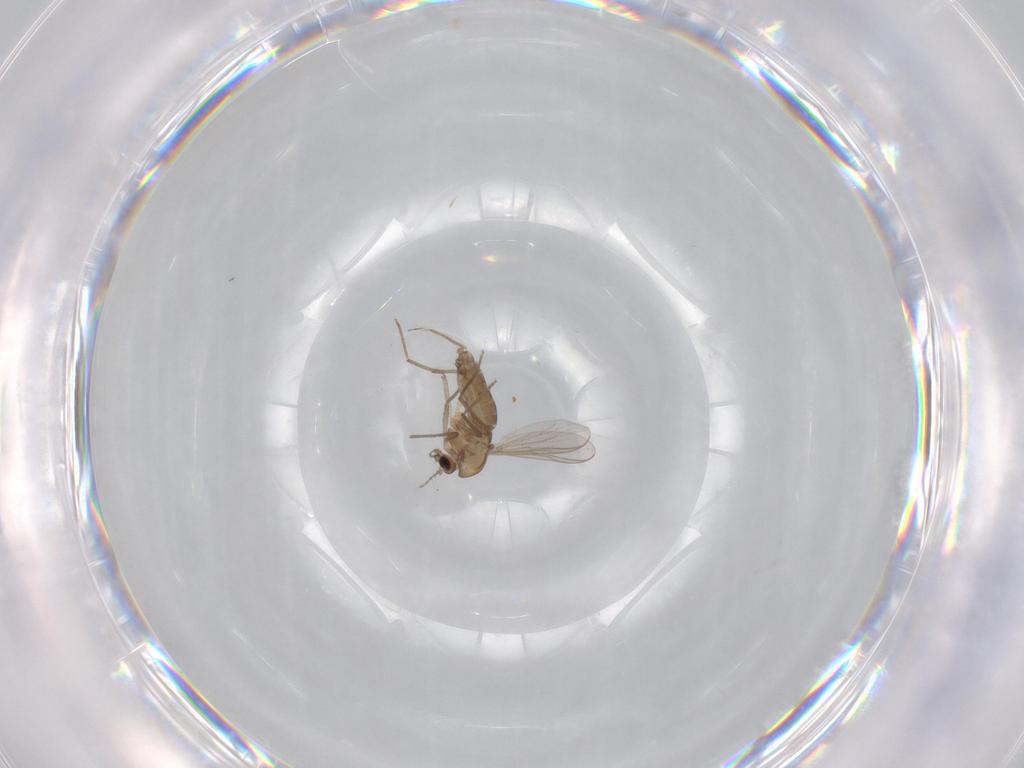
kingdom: Animalia
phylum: Arthropoda
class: Insecta
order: Diptera
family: Chironomidae
